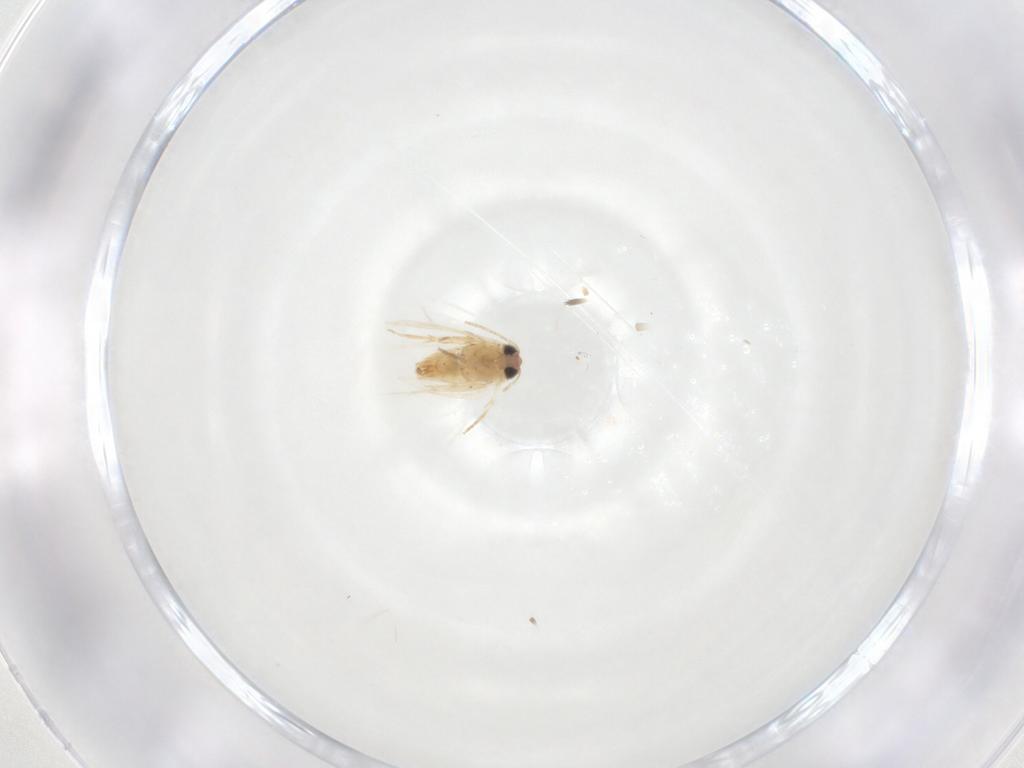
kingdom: Animalia
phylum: Arthropoda
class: Insecta
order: Lepidoptera
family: Crambidae
